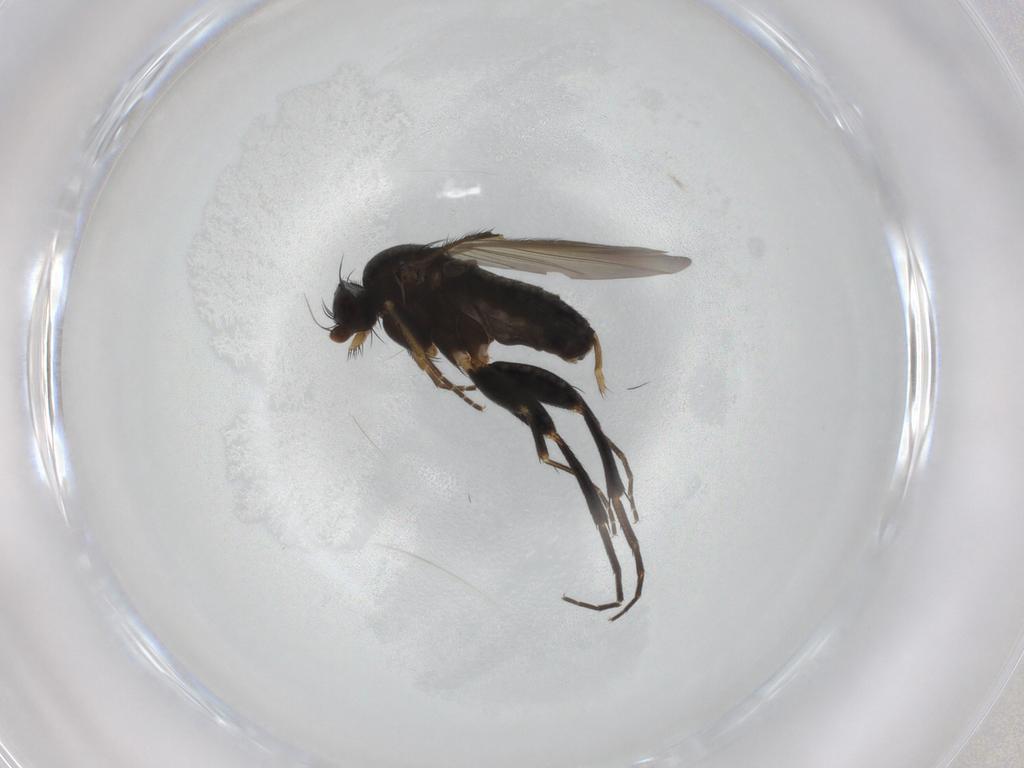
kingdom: Animalia
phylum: Arthropoda
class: Insecta
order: Diptera
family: Phoridae
